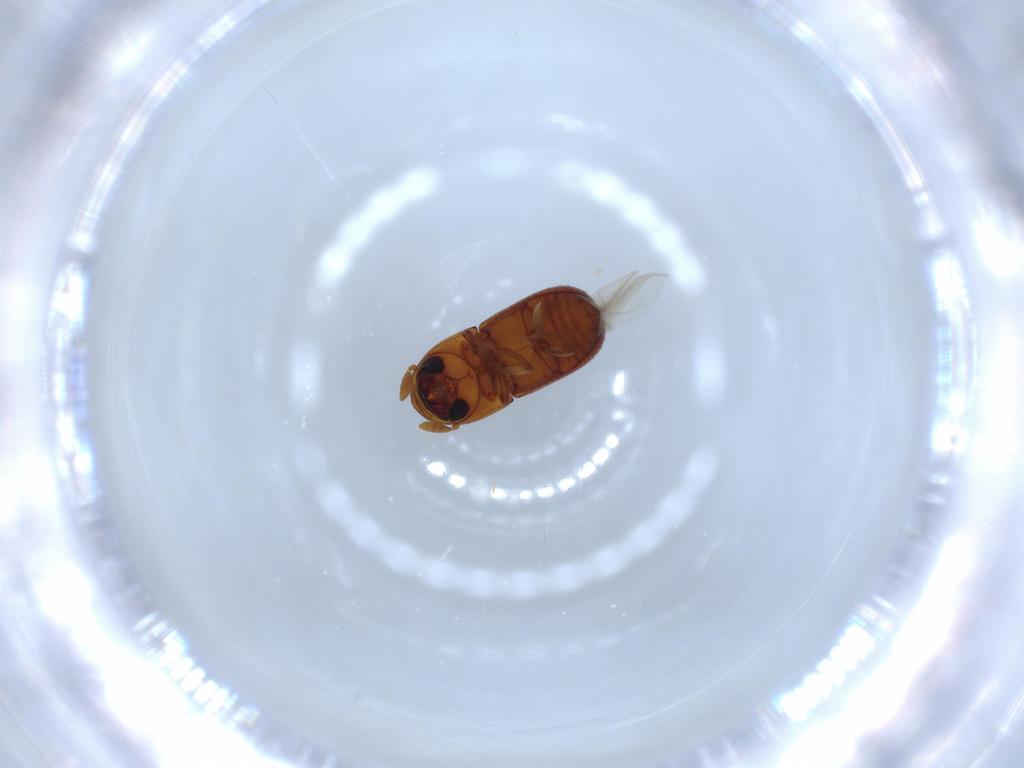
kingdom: Animalia
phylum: Arthropoda
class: Insecta
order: Coleoptera
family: Curculionidae
